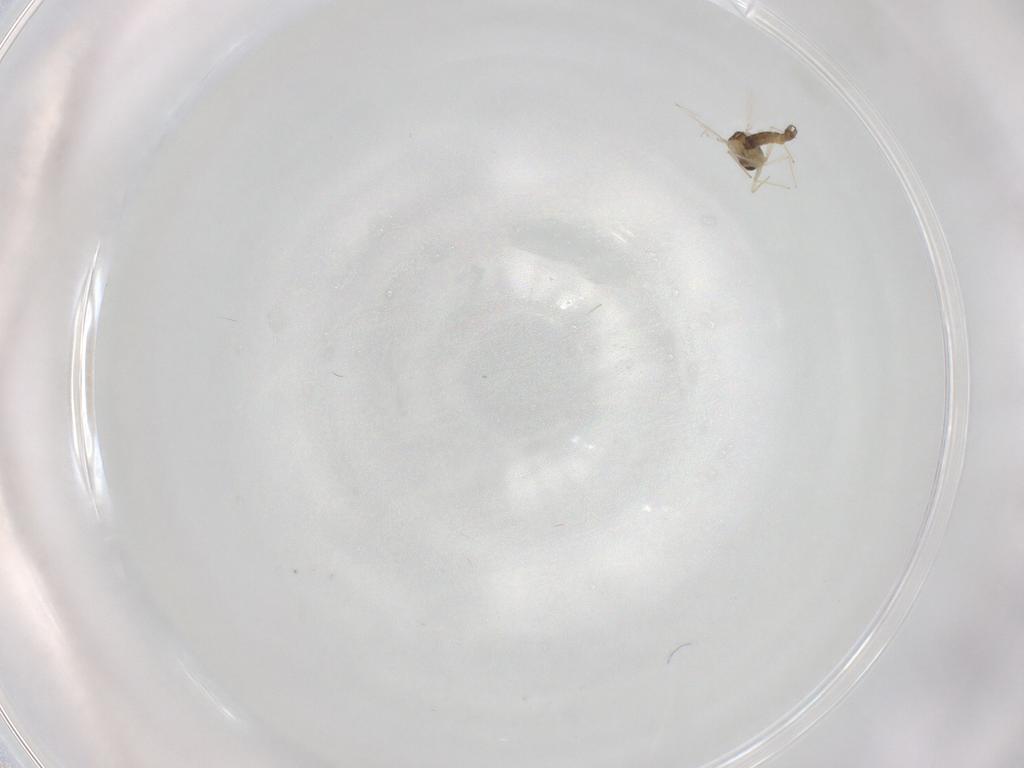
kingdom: Animalia
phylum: Arthropoda
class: Insecta
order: Diptera
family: Chironomidae
